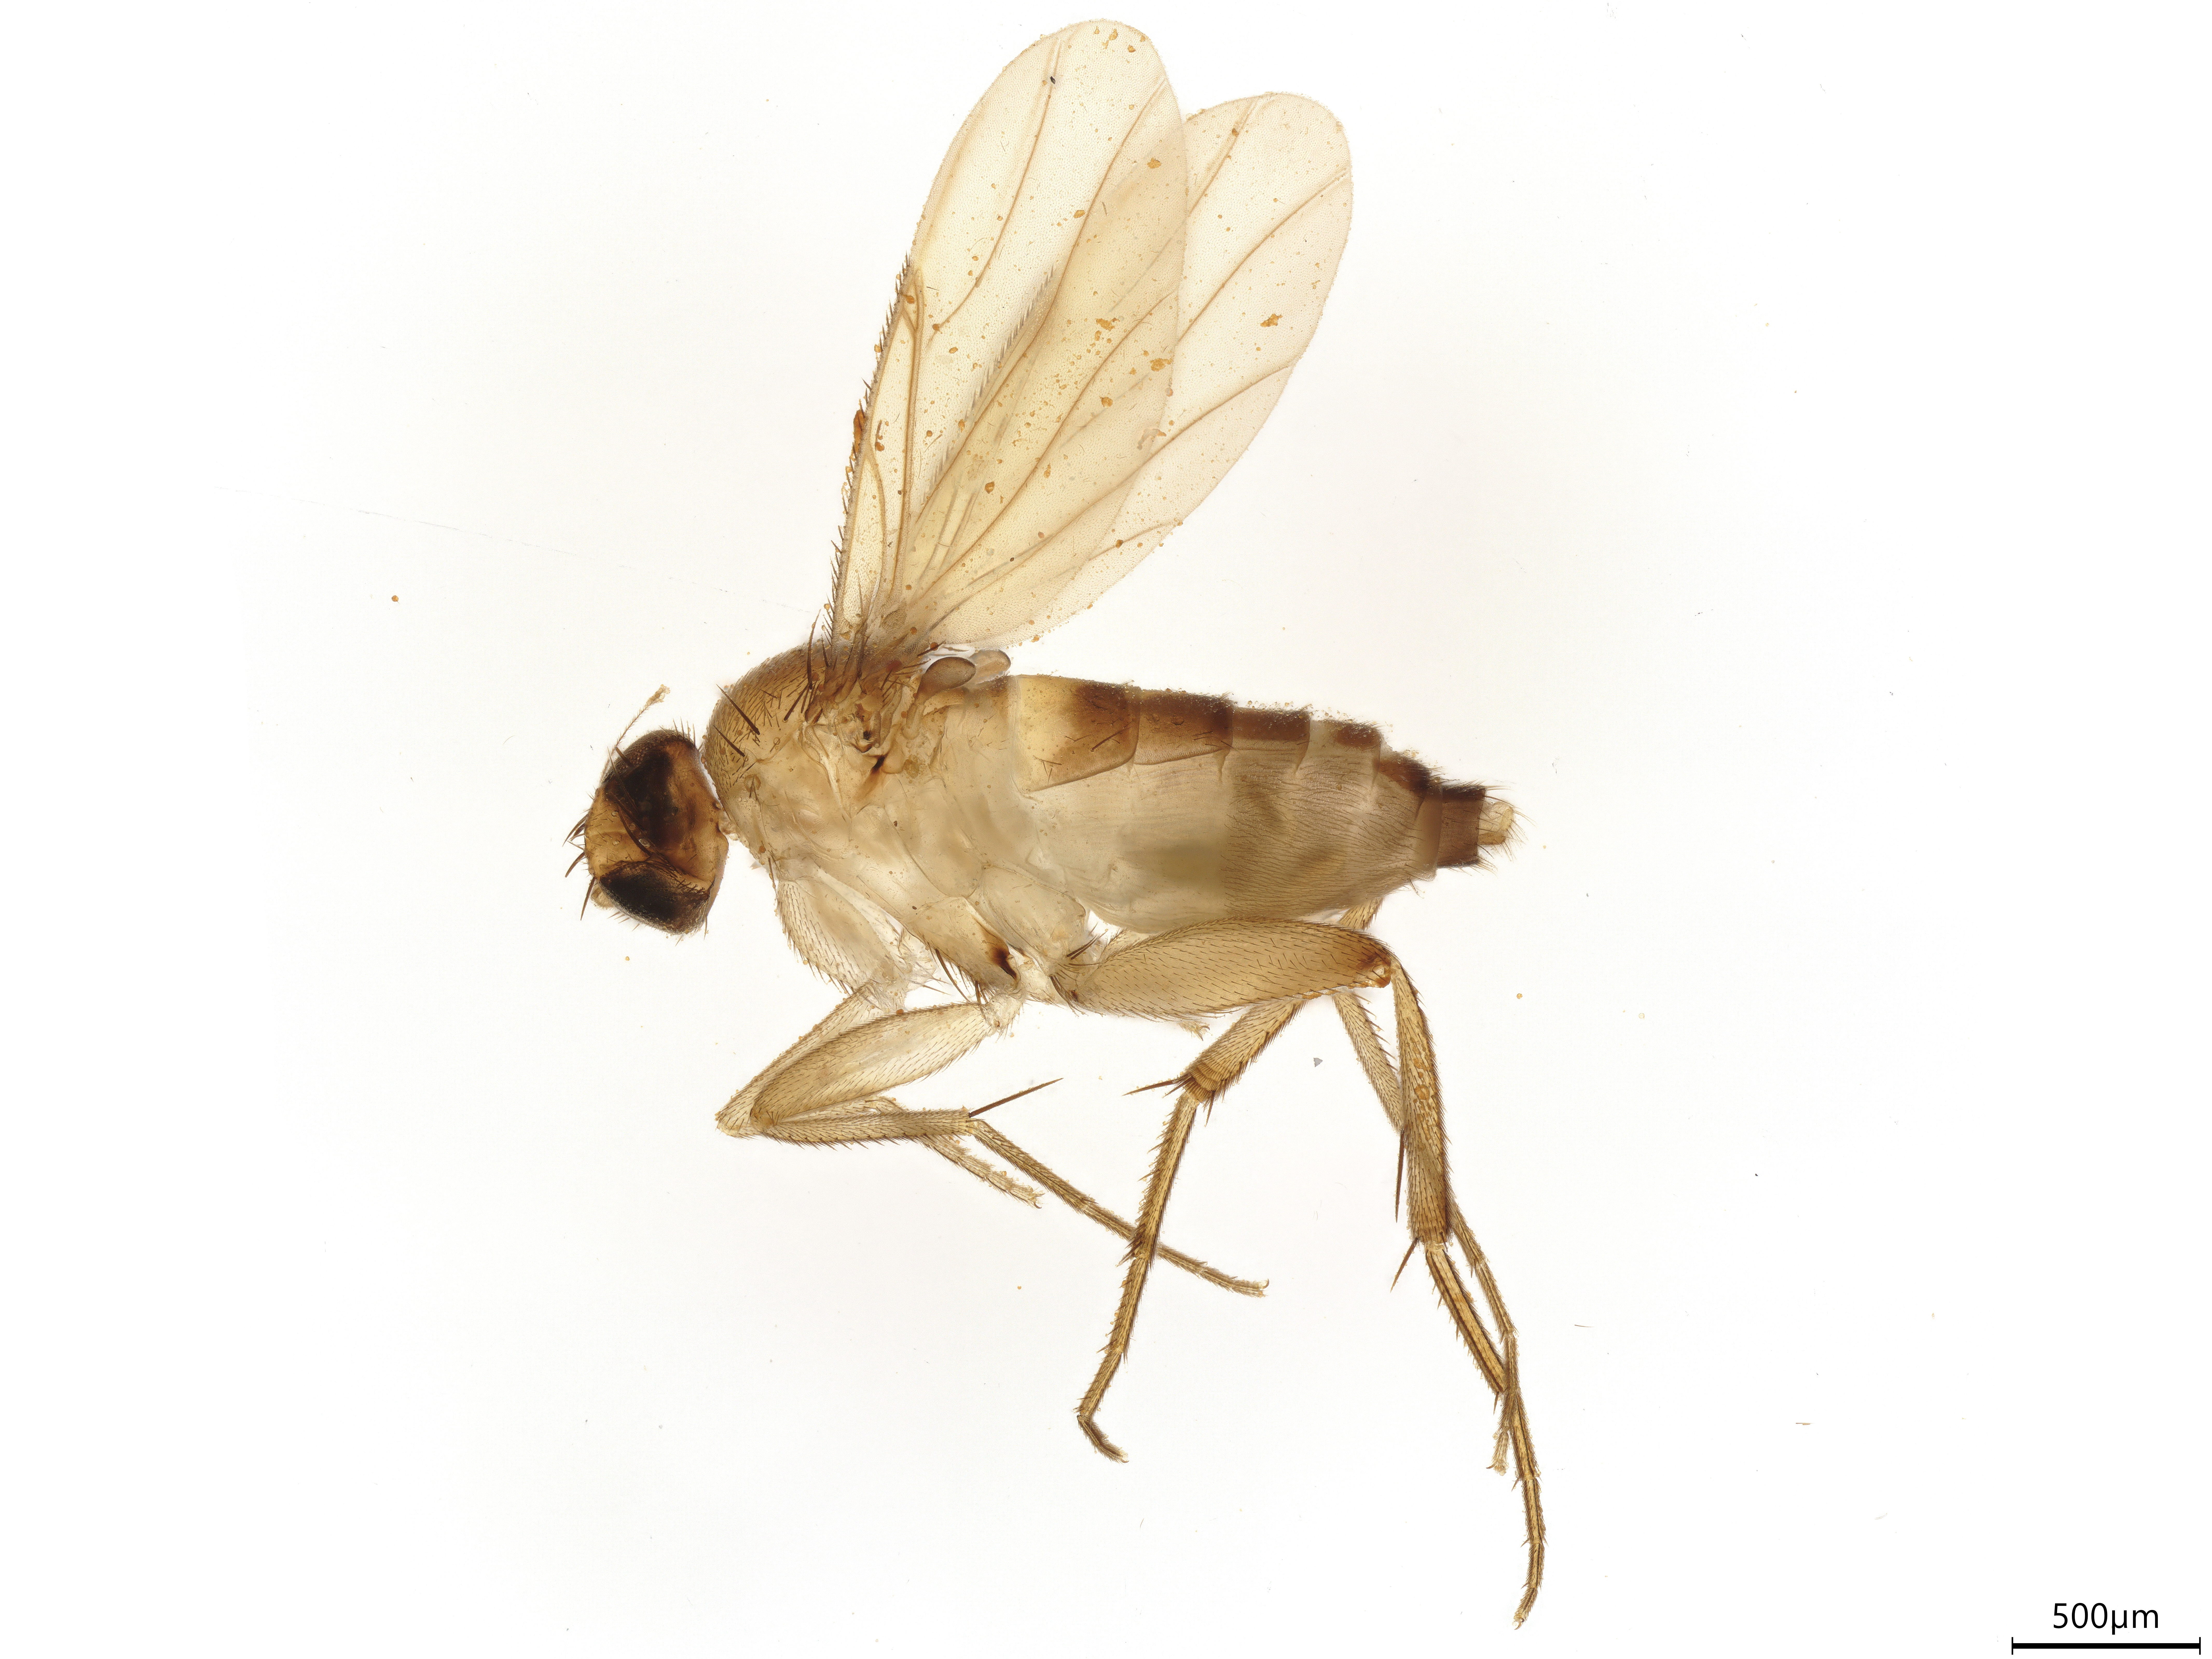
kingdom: Animalia
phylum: Arthropoda
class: Insecta
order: Diptera
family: Phoridae
